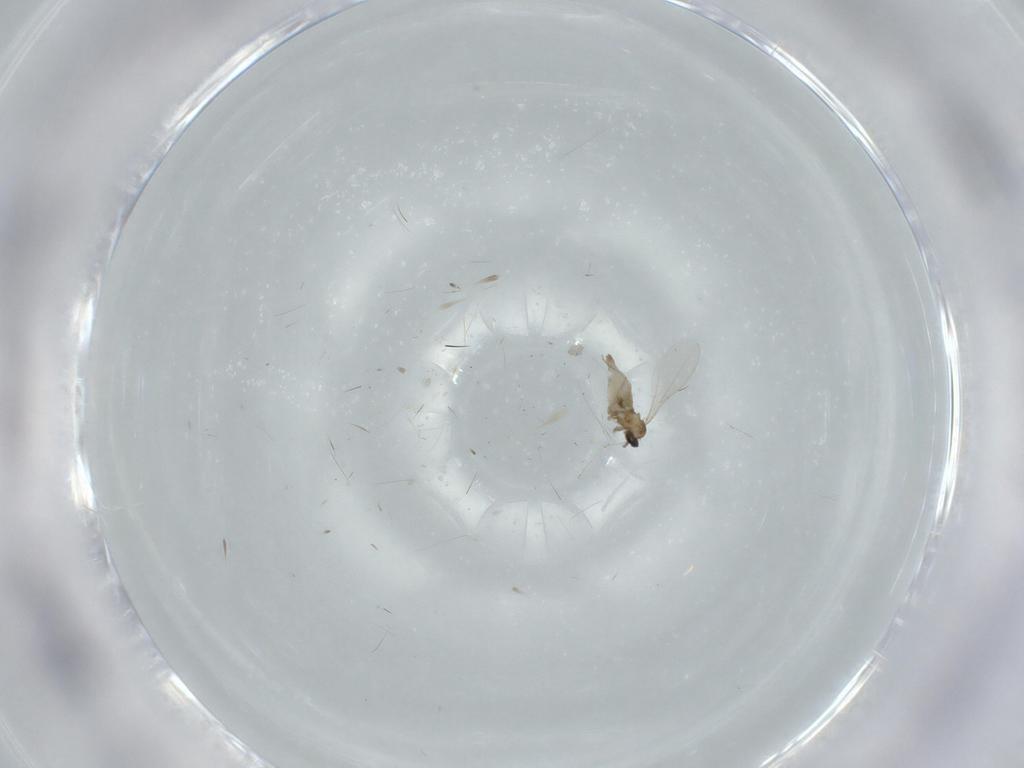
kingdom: Animalia
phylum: Arthropoda
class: Insecta
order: Diptera
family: Cecidomyiidae
